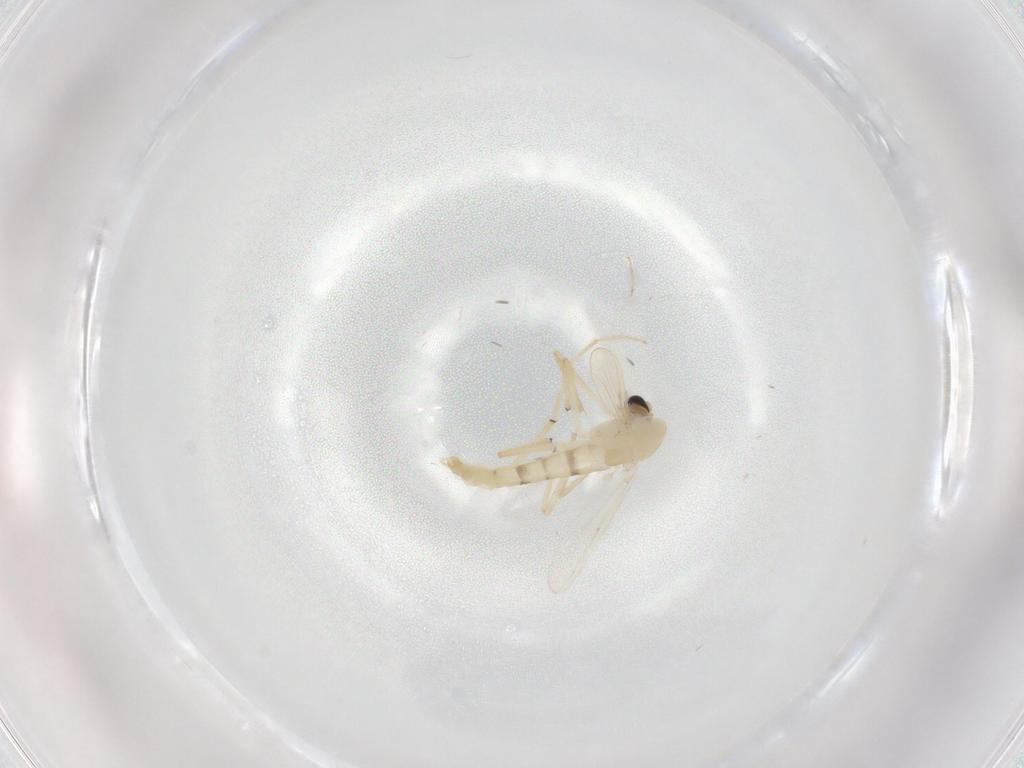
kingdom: Animalia
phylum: Arthropoda
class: Insecta
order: Diptera
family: Chironomidae
